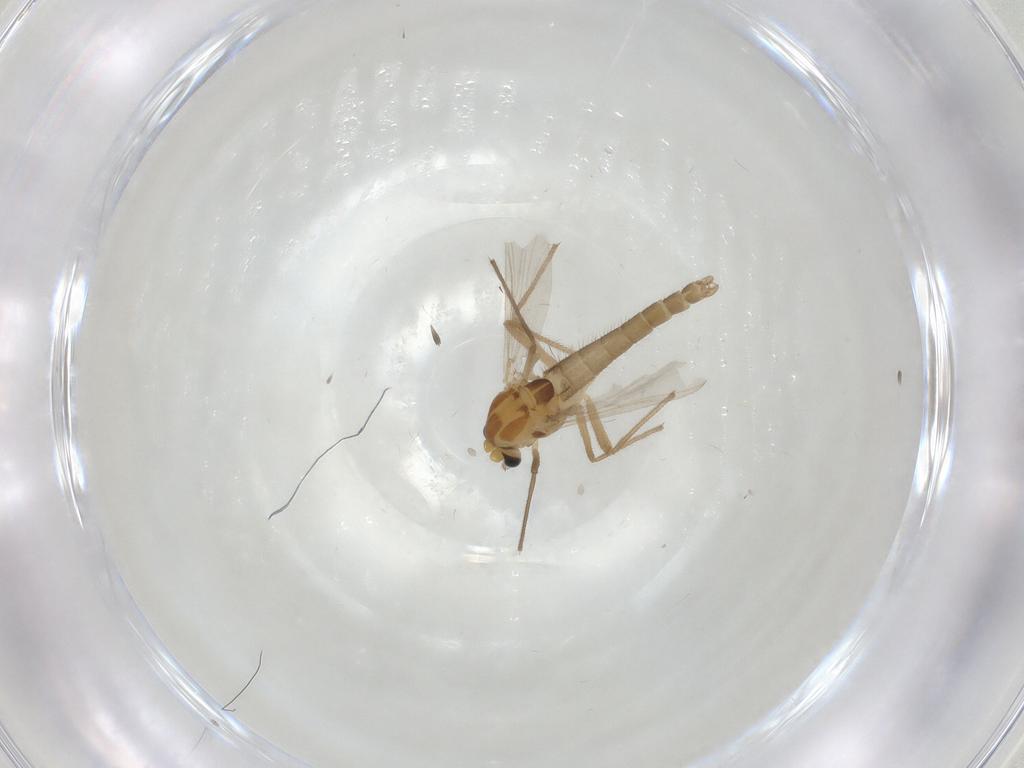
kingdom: Animalia
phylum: Arthropoda
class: Insecta
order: Diptera
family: Chironomidae
